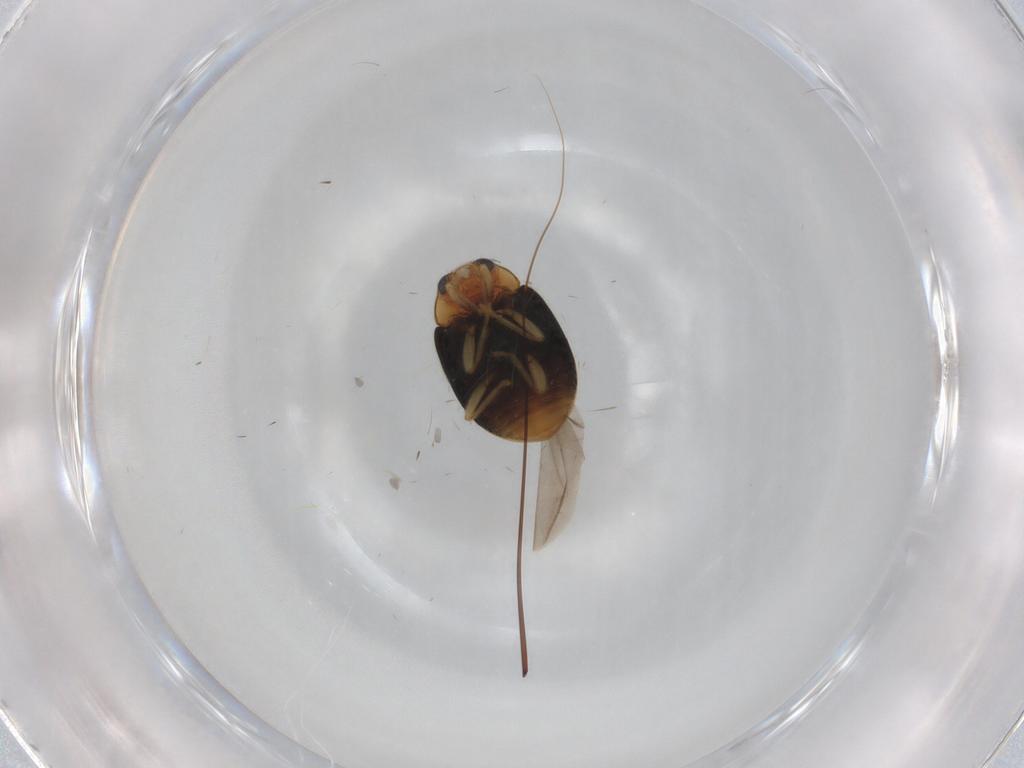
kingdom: Animalia
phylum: Arthropoda
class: Insecta
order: Coleoptera
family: Coccinellidae
